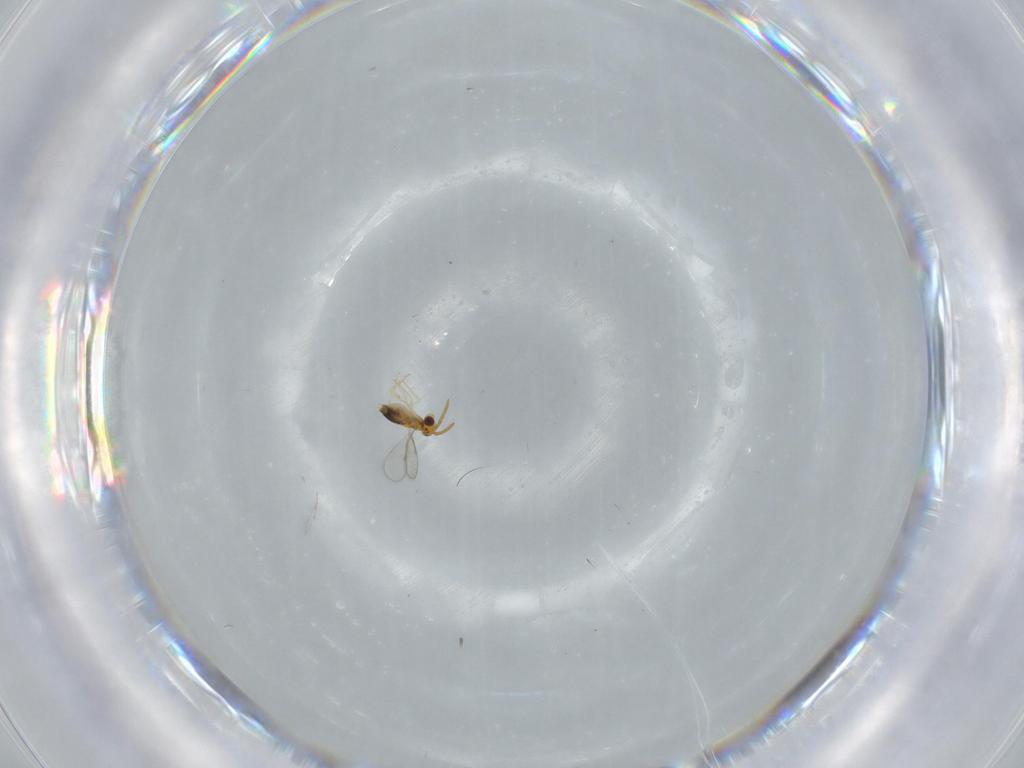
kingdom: Animalia
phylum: Arthropoda
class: Insecta
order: Hymenoptera
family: Aphelinidae
